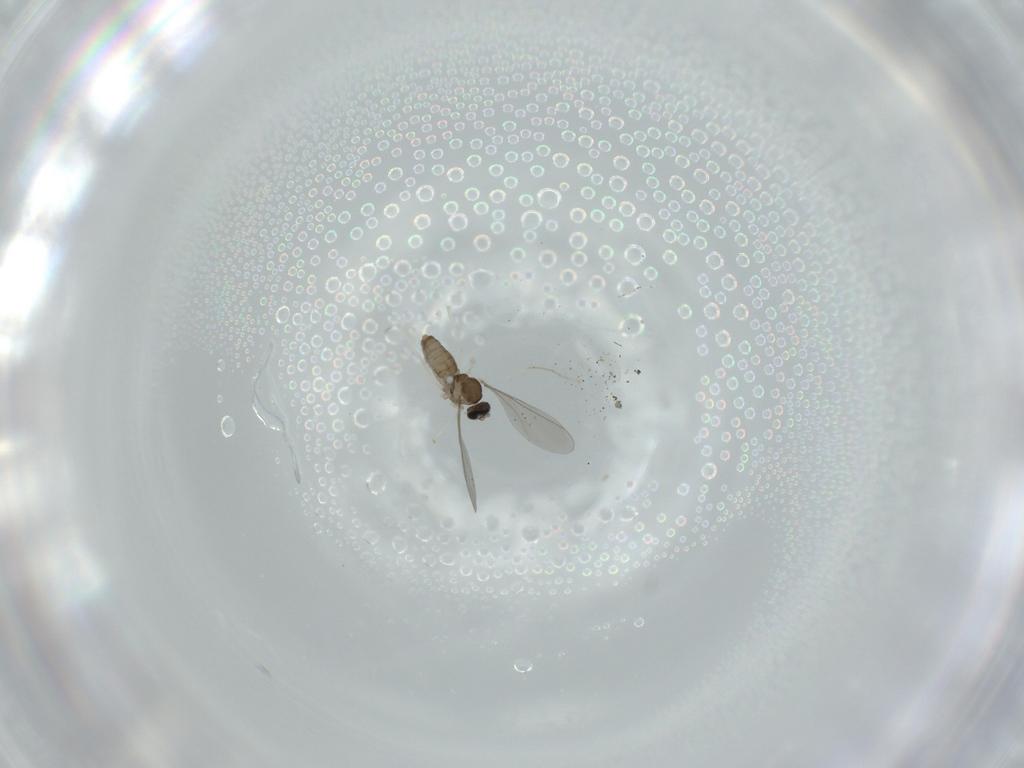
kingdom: Animalia
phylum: Arthropoda
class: Insecta
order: Diptera
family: Cecidomyiidae
